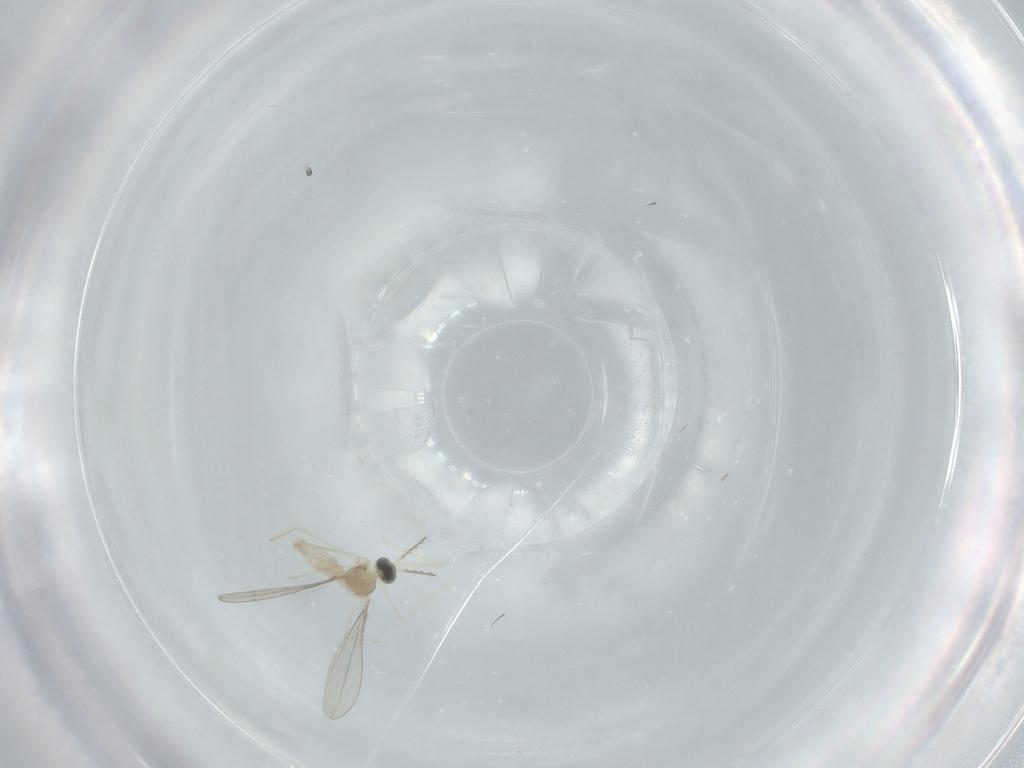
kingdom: Animalia
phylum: Arthropoda
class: Insecta
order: Diptera
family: Cecidomyiidae
